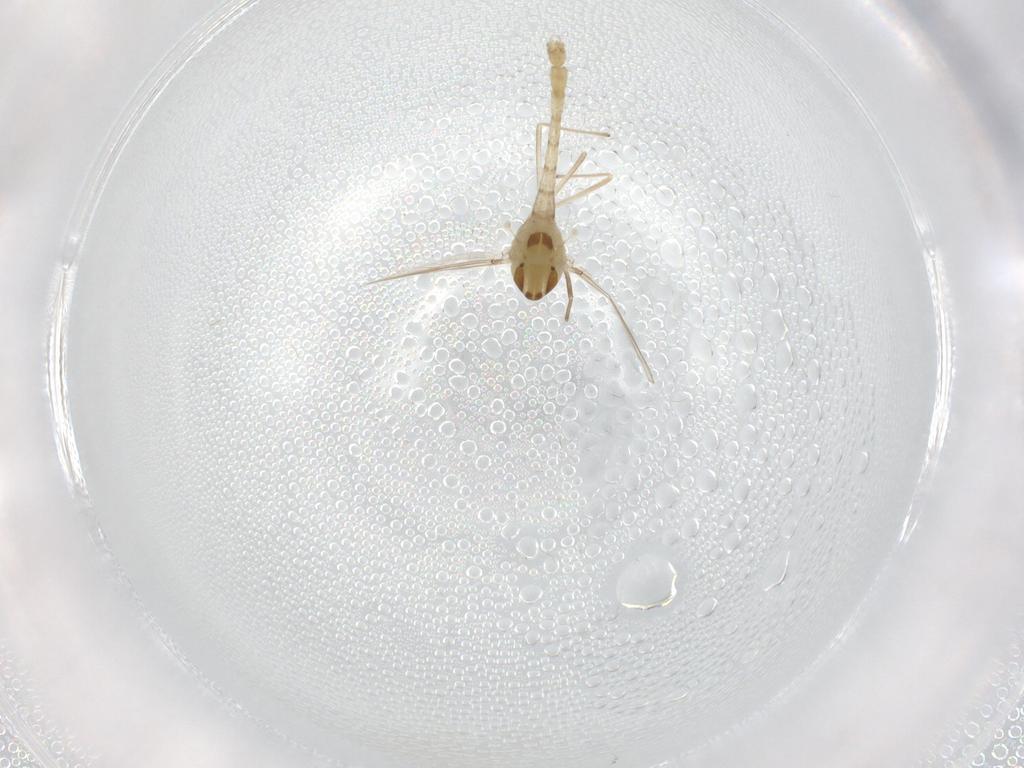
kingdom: Animalia
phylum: Arthropoda
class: Insecta
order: Diptera
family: Chironomidae
